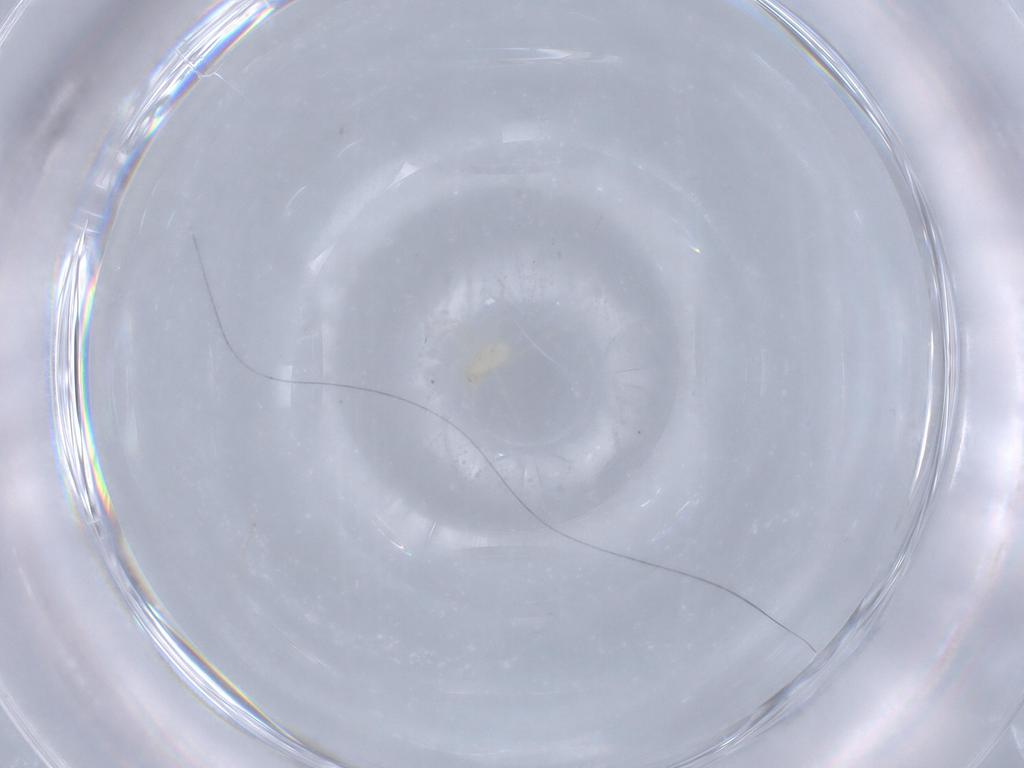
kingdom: Animalia
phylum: Arthropoda
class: Arachnida
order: Trombidiformes
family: Erythraeidae
